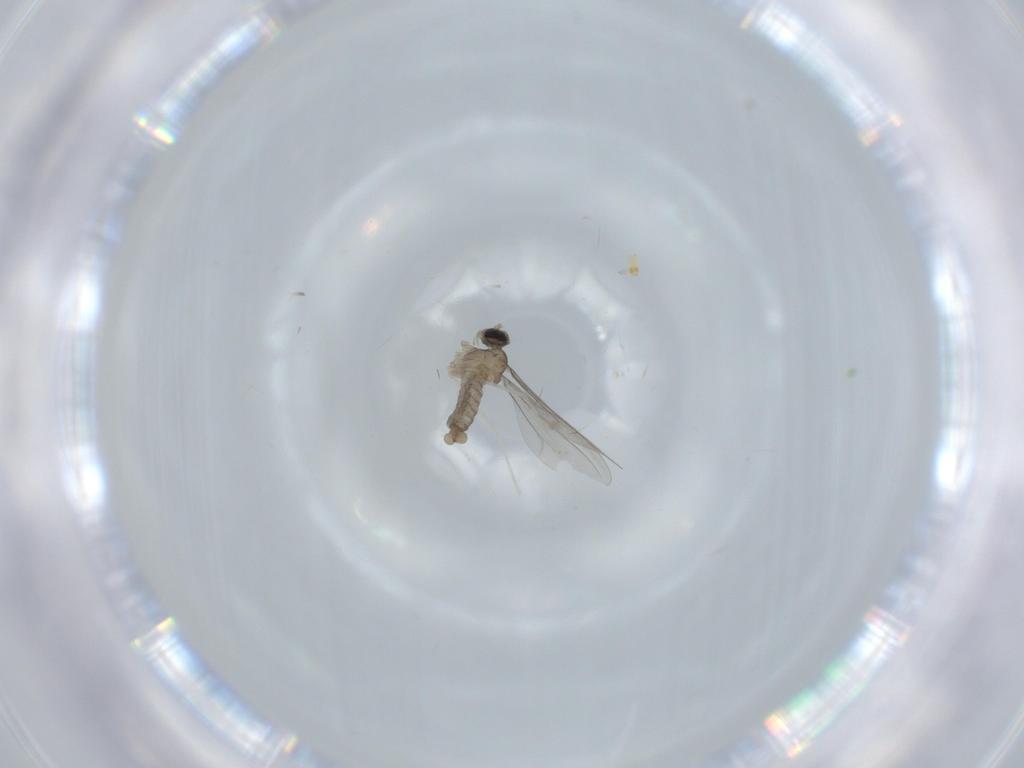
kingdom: Animalia
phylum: Arthropoda
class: Insecta
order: Diptera
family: Cecidomyiidae
